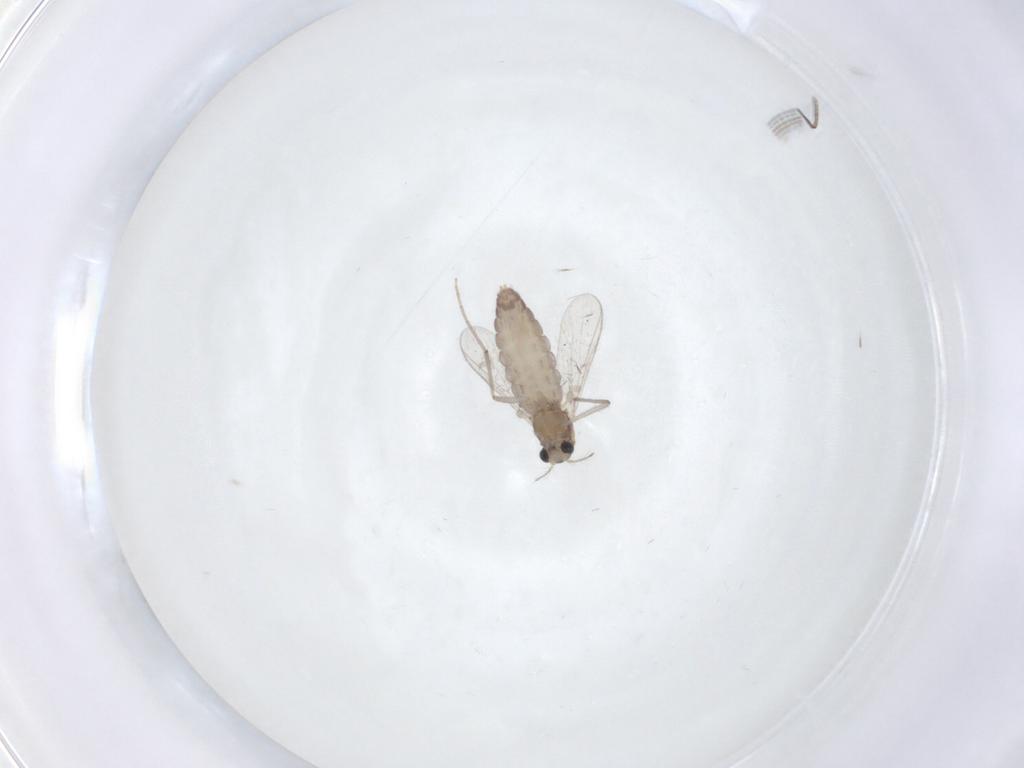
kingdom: Animalia
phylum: Arthropoda
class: Insecta
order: Diptera
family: Chironomidae
